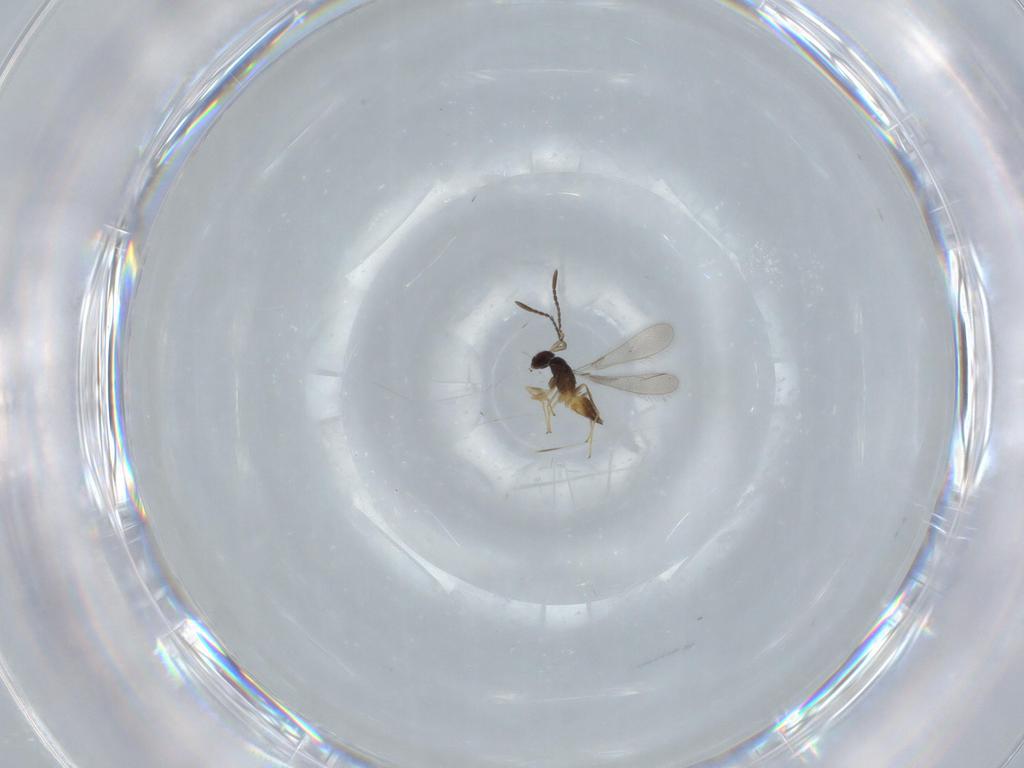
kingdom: Animalia
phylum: Arthropoda
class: Insecta
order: Hymenoptera
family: Mymaridae
